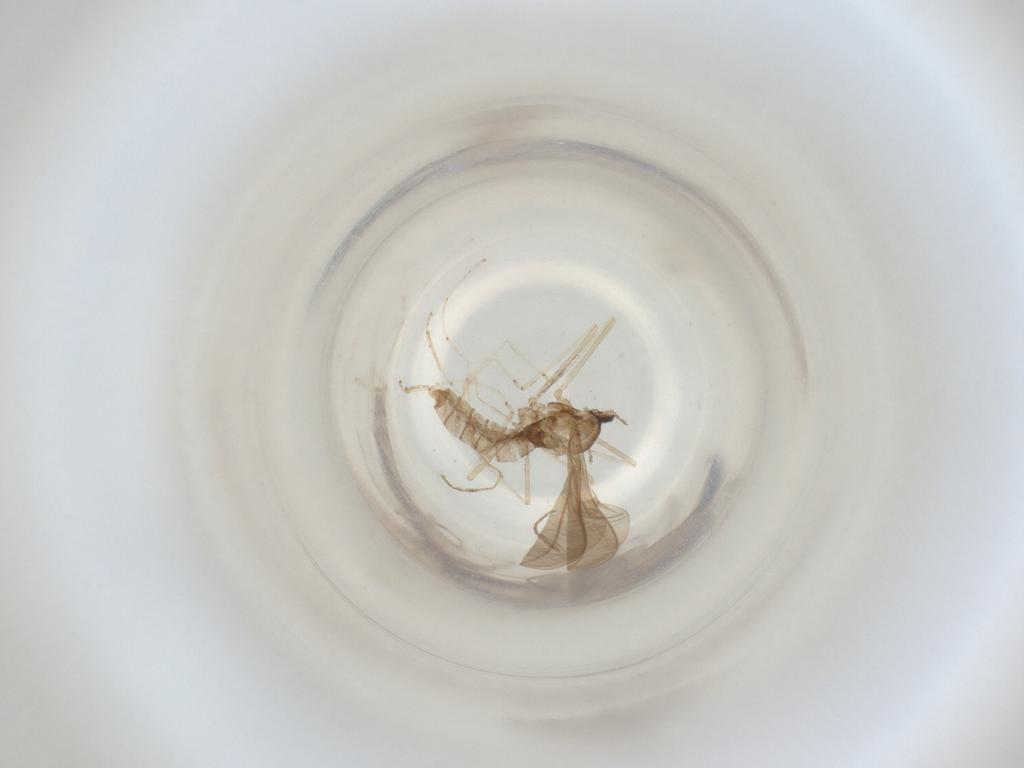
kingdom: Animalia
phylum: Arthropoda
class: Insecta
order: Diptera
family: Cecidomyiidae
